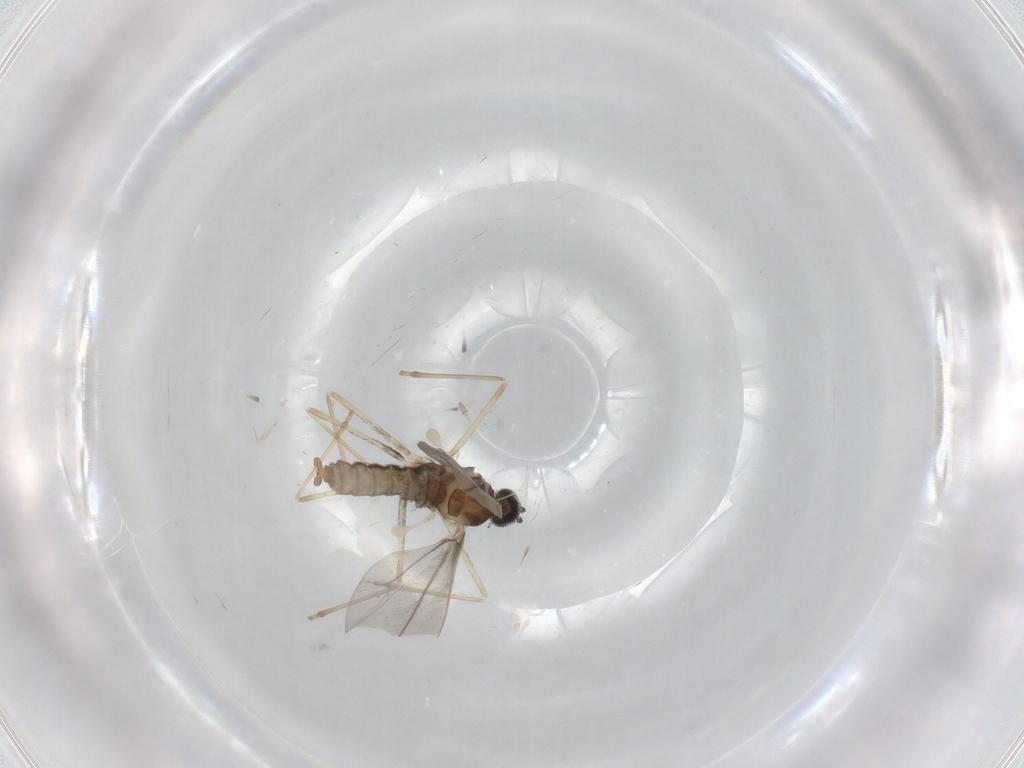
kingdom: Animalia
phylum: Arthropoda
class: Insecta
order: Diptera
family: Cecidomyiidae
